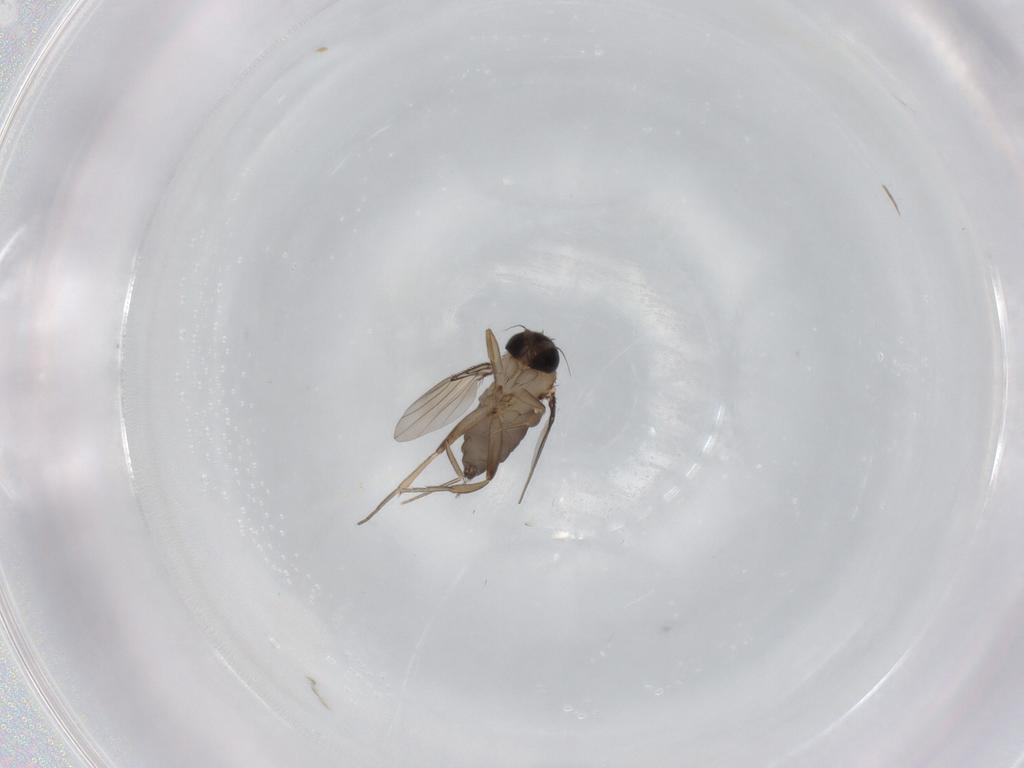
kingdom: Animalia
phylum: Arthropoda
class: Insecta
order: Diptera
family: Phoridae
